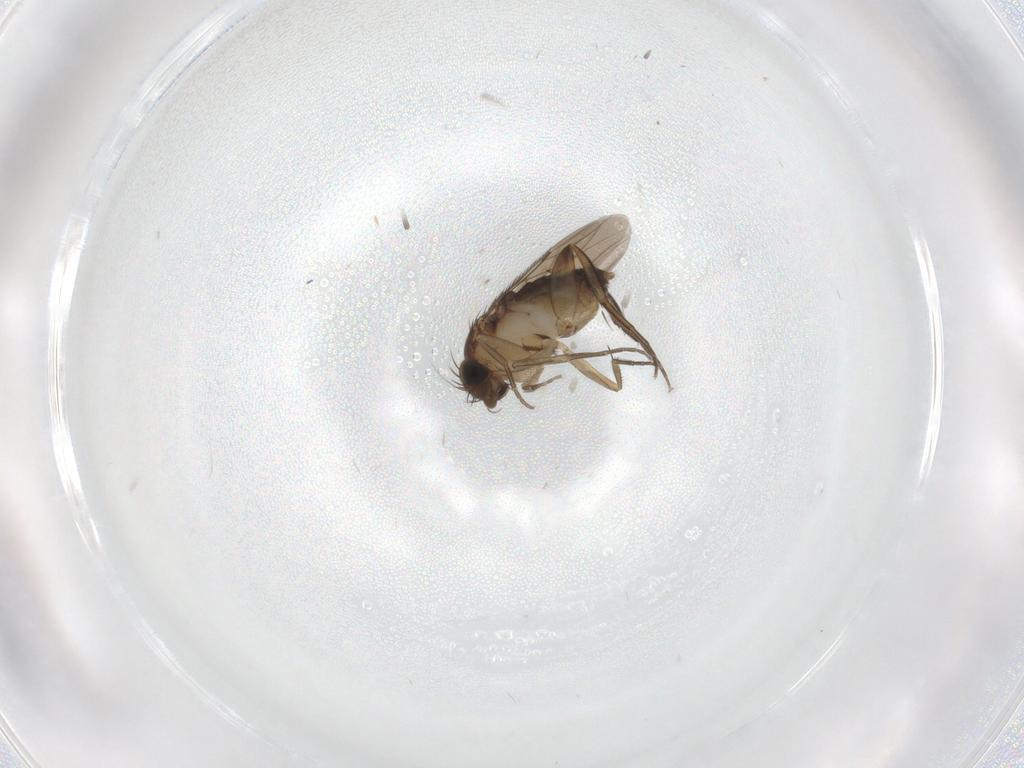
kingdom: Animalia
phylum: Arthropoda
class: Insecta
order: Diptera
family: Phoridae
